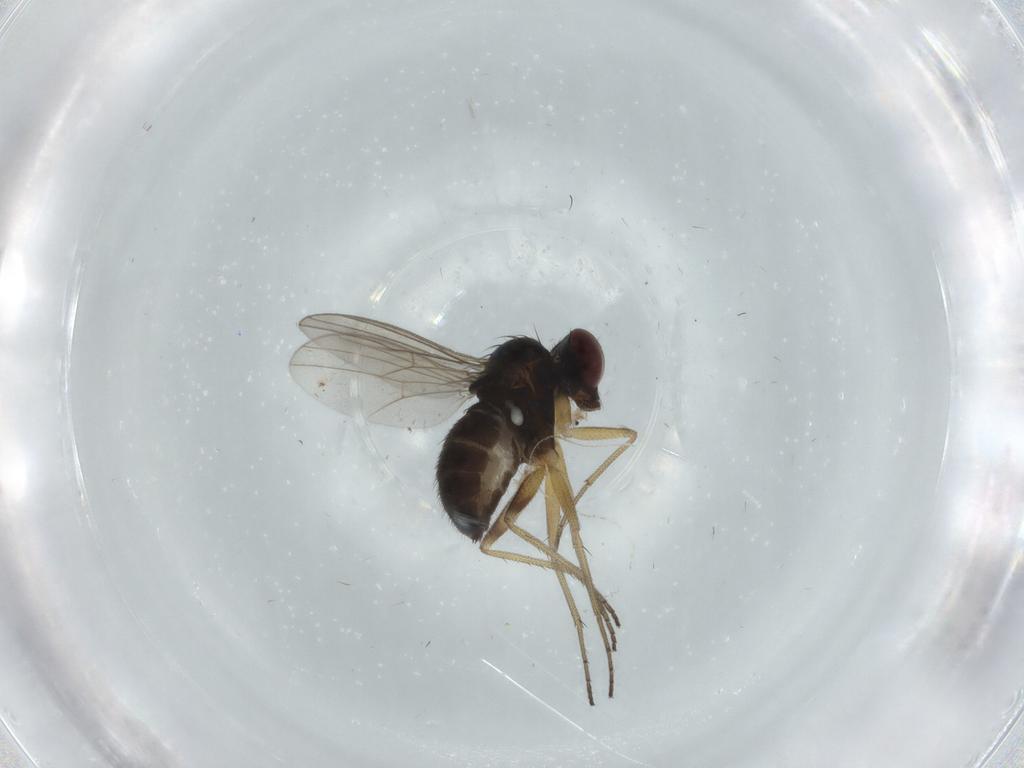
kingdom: Animalia
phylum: Arthropoda
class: Insecta
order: Diptera
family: Dolichopodidae
